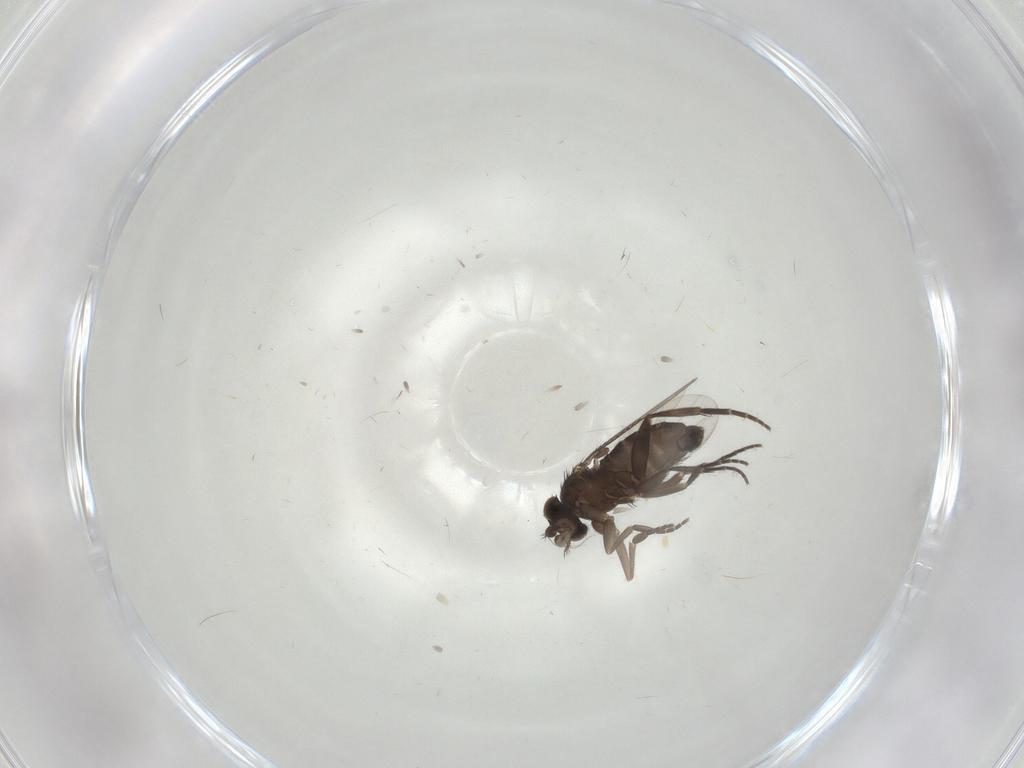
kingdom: Animalia
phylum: Arthropoda
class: Insecta
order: Diptera
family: Phoridae
